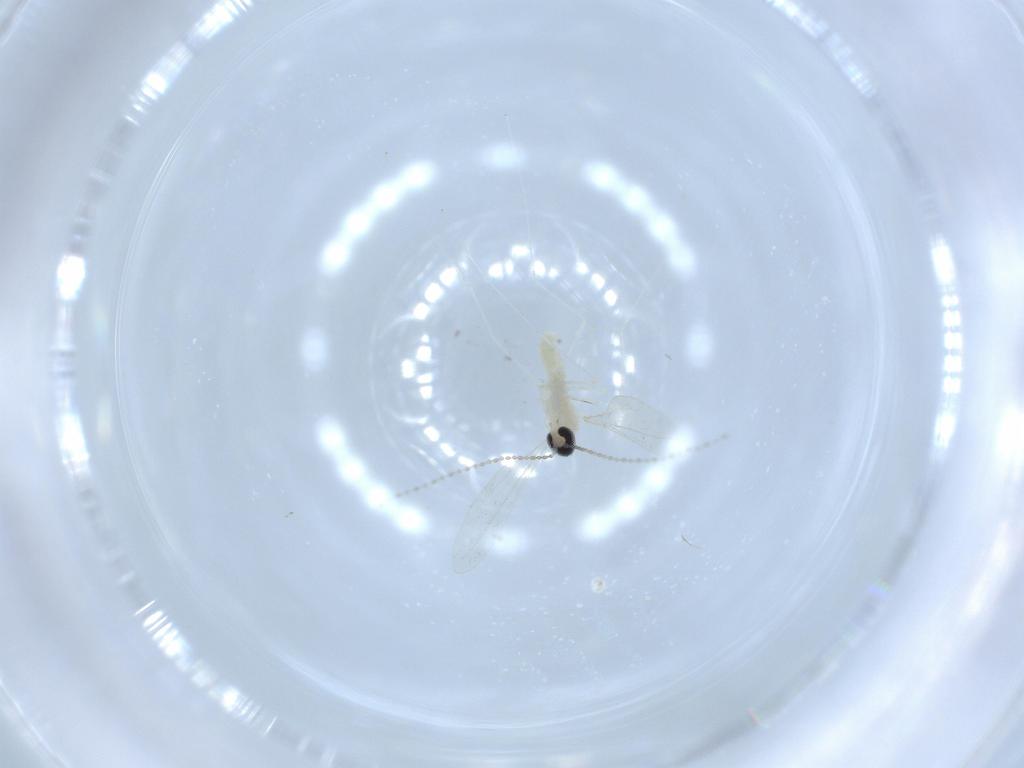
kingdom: Animalia
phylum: Arthropoda
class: Insecta
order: Diptera
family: Cecidomyiidae
